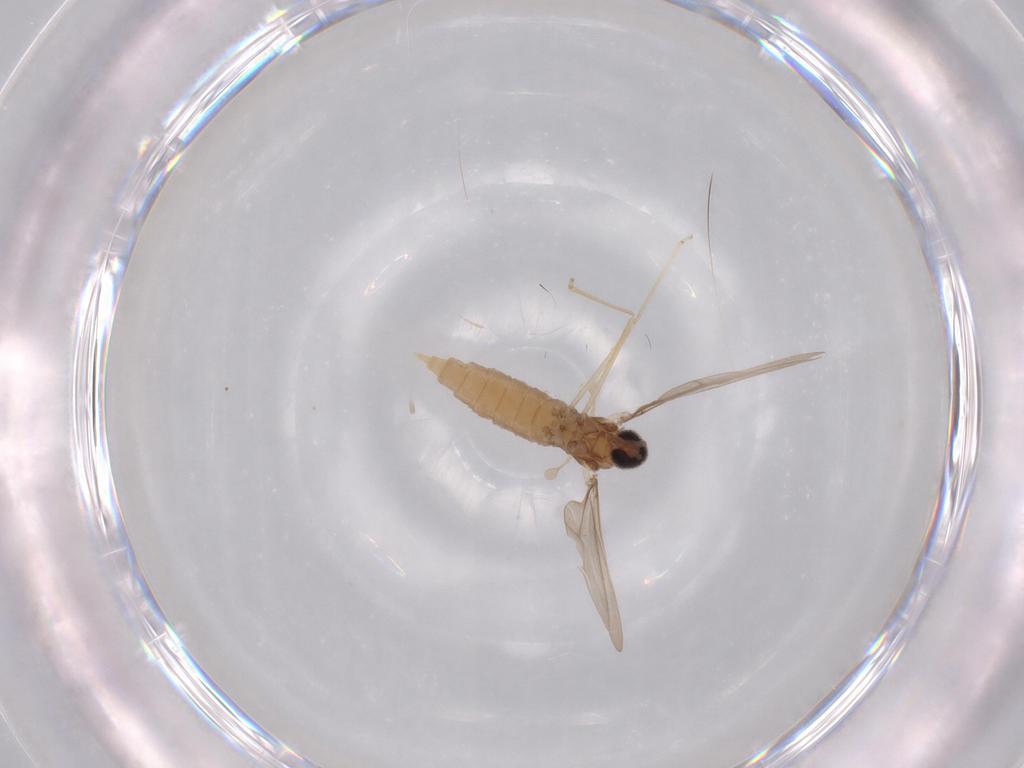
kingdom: Animalia
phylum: Arthropoda
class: Insecta
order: Diptera
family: Cecidomyiidae
